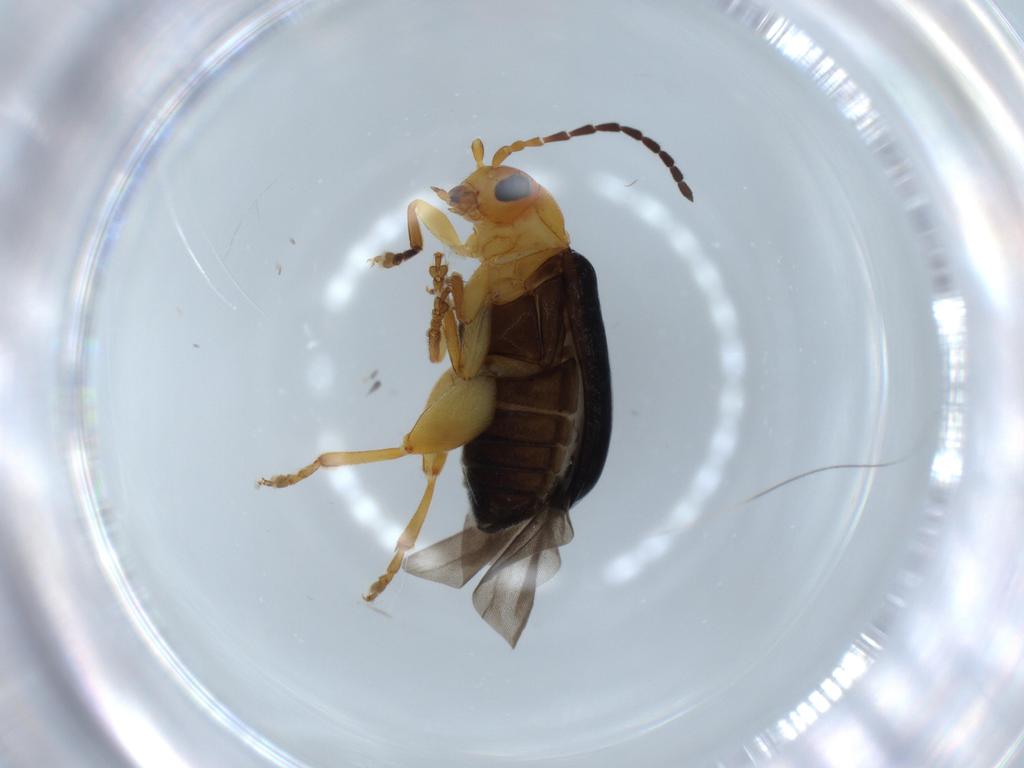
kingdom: Animalia
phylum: Arthropoda
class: Insecta
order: Coleoptera
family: Chrysomelidae
